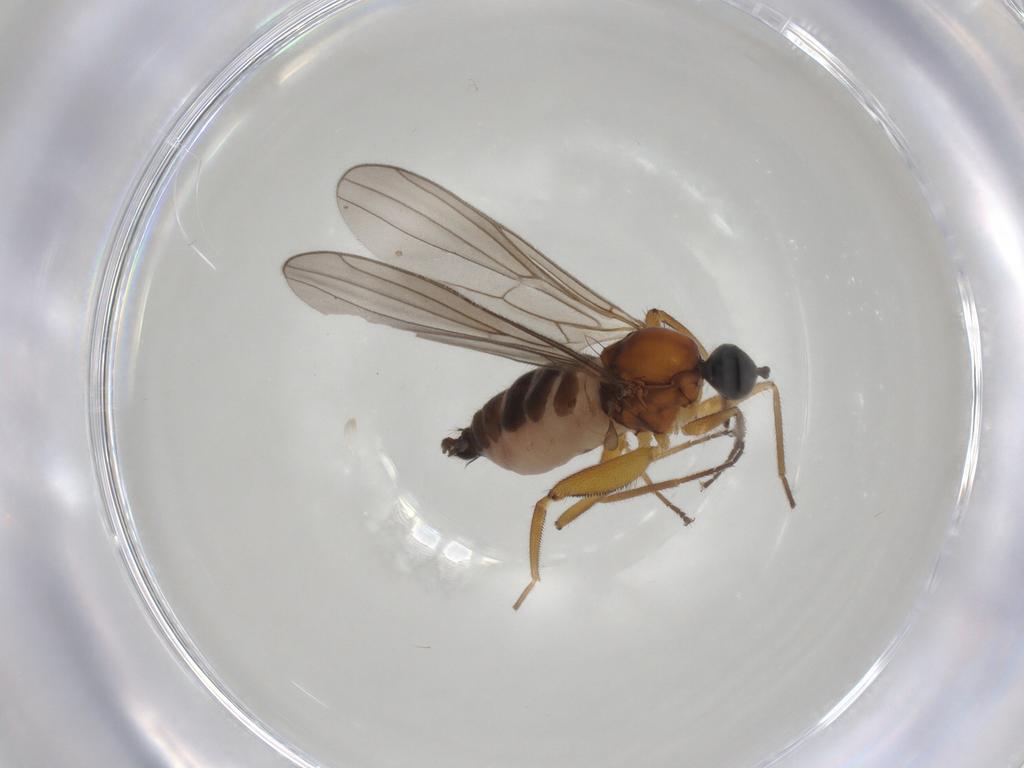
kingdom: Animalia
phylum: Arthropoda
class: Insecta
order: Diptera
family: Hybotidae
